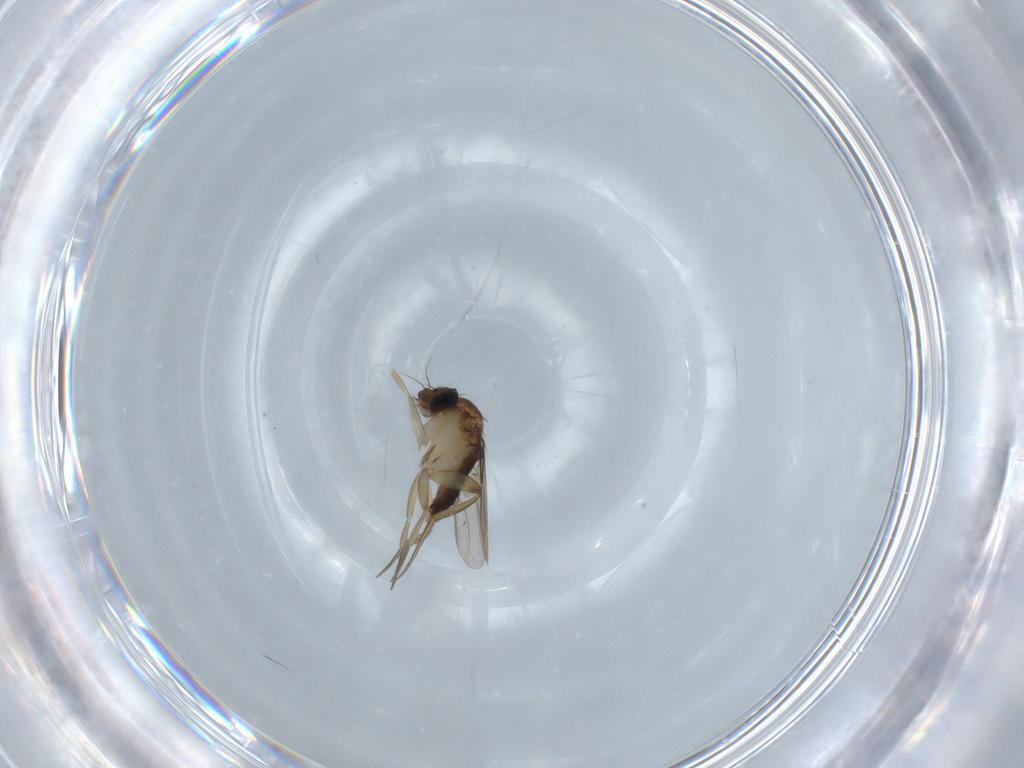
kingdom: Animalia
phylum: Arthropoda
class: Insecta
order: Diptera
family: Phoridae
